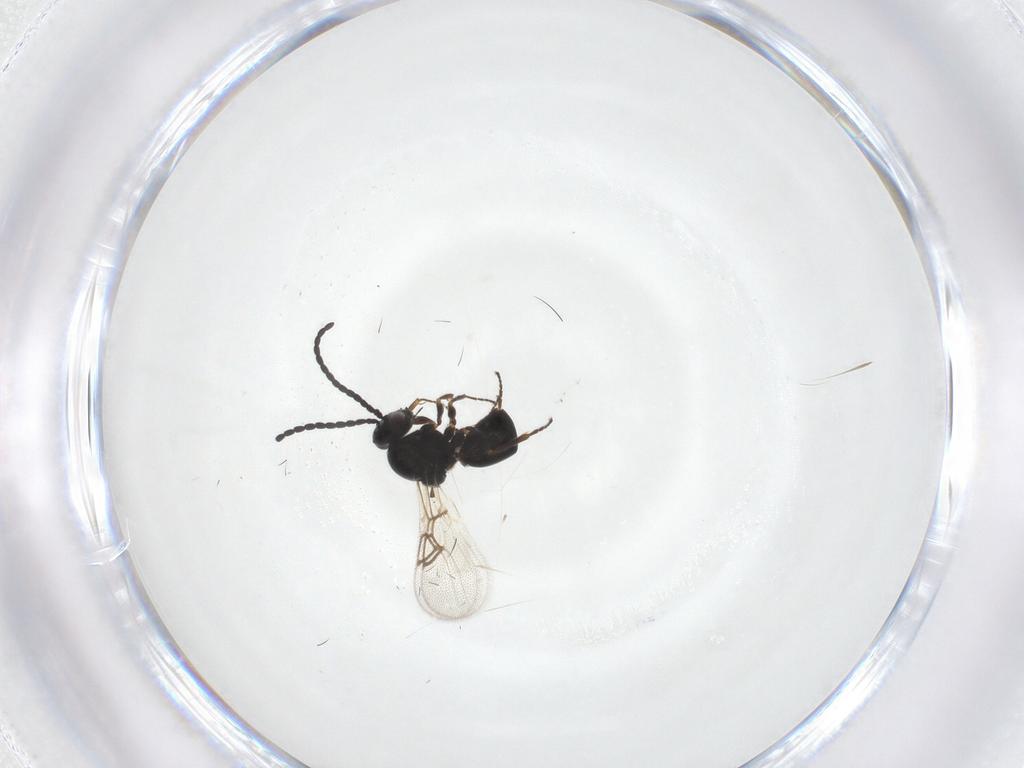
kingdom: Animalia
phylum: Arthropoda
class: Insecta
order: Hymenoptera
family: Figitidae
